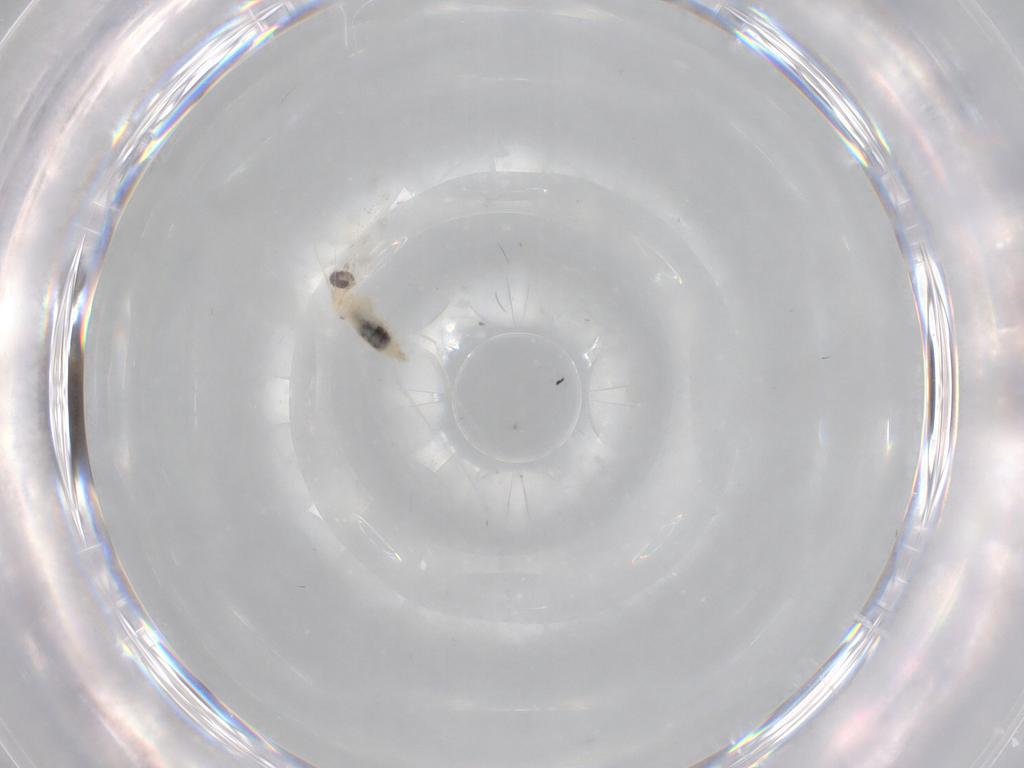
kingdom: Animalia
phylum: Arthropoda
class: Insecta
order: Diptera
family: Cecidomyiidae
